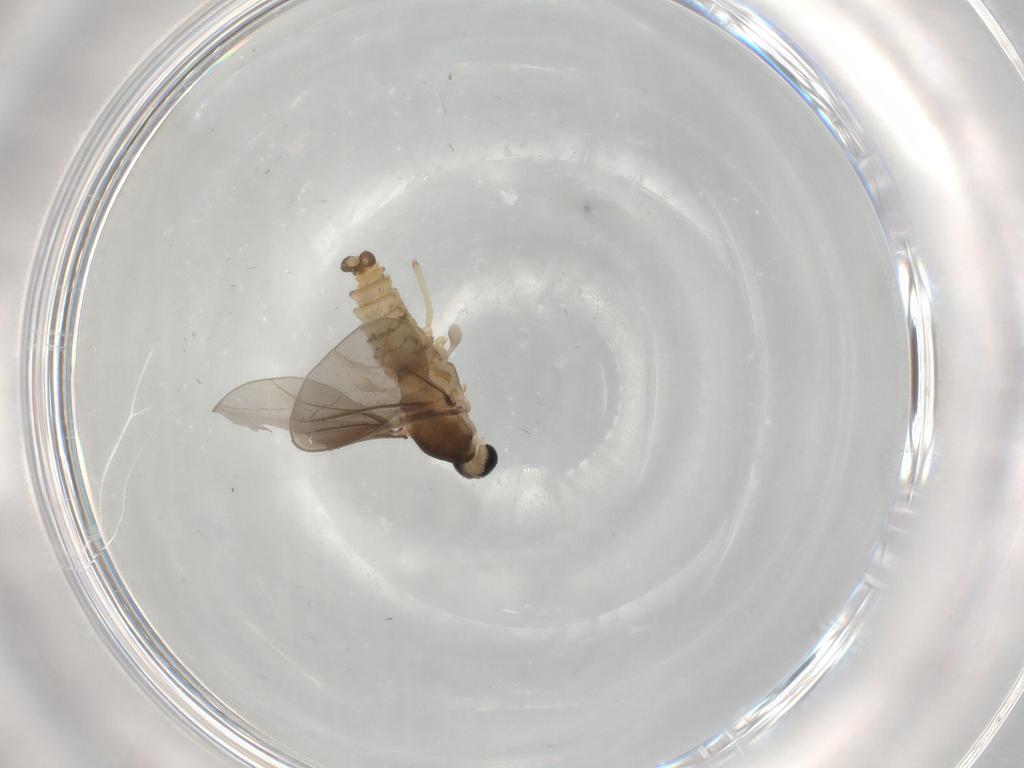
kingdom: Animalia
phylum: Arthropoda
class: Insecta
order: Diptera
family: Cecidomyiidae
